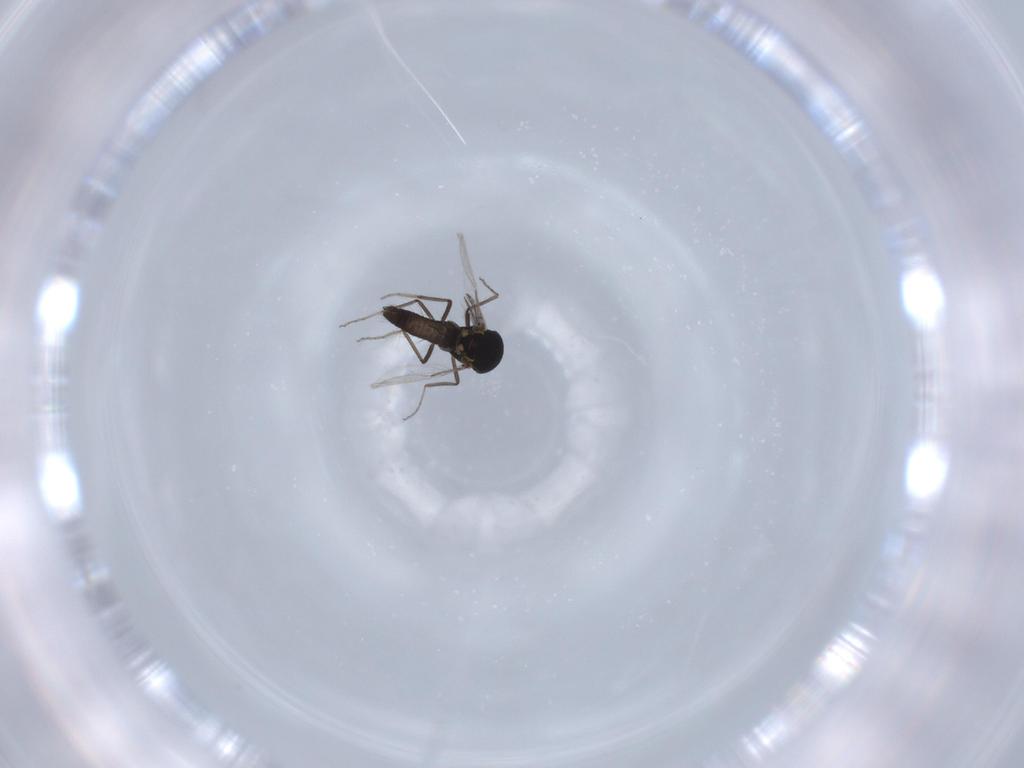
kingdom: Animalia
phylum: Arthropoda
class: Insecta
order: Diptera
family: Ceratopogonidae
